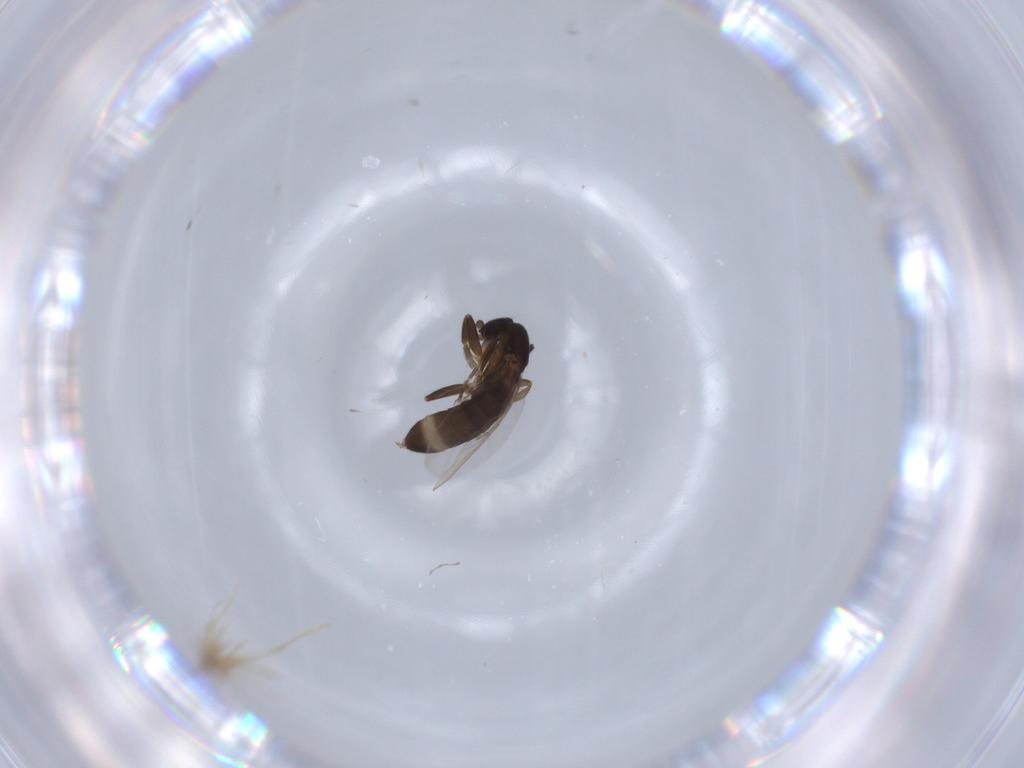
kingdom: Animalia
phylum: Arthropoda
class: Insecta
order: Diptera
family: Phoridae
